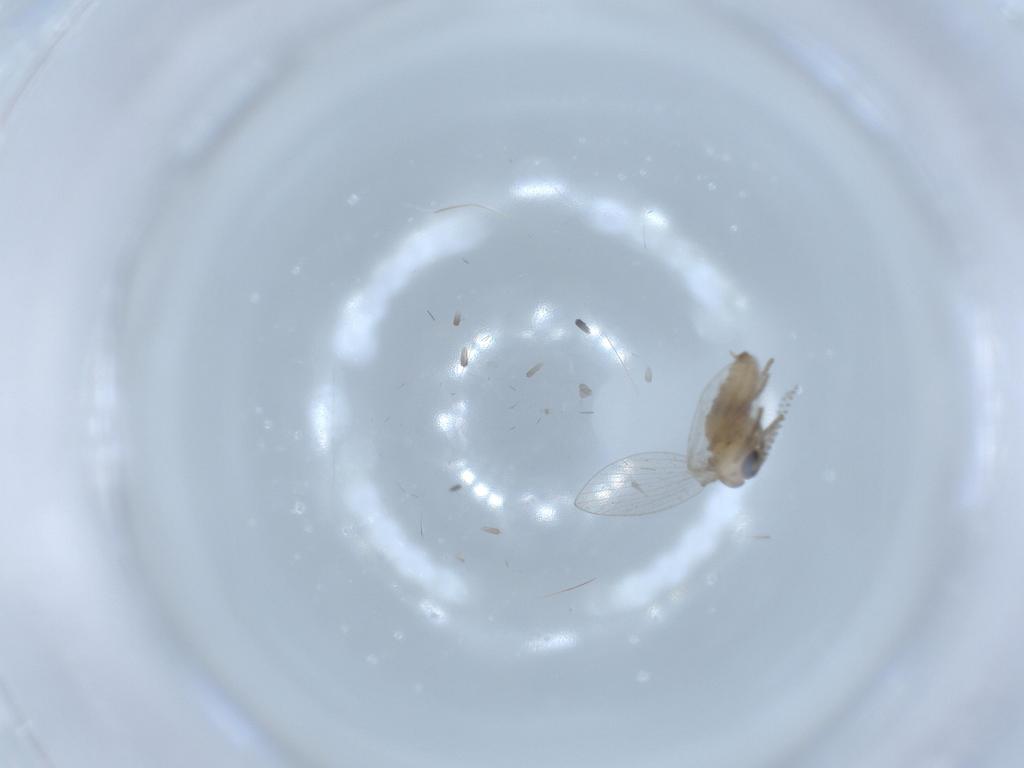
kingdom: Animalia
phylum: Arthropoda
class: Insecta
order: Diptera
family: Psychodidae
